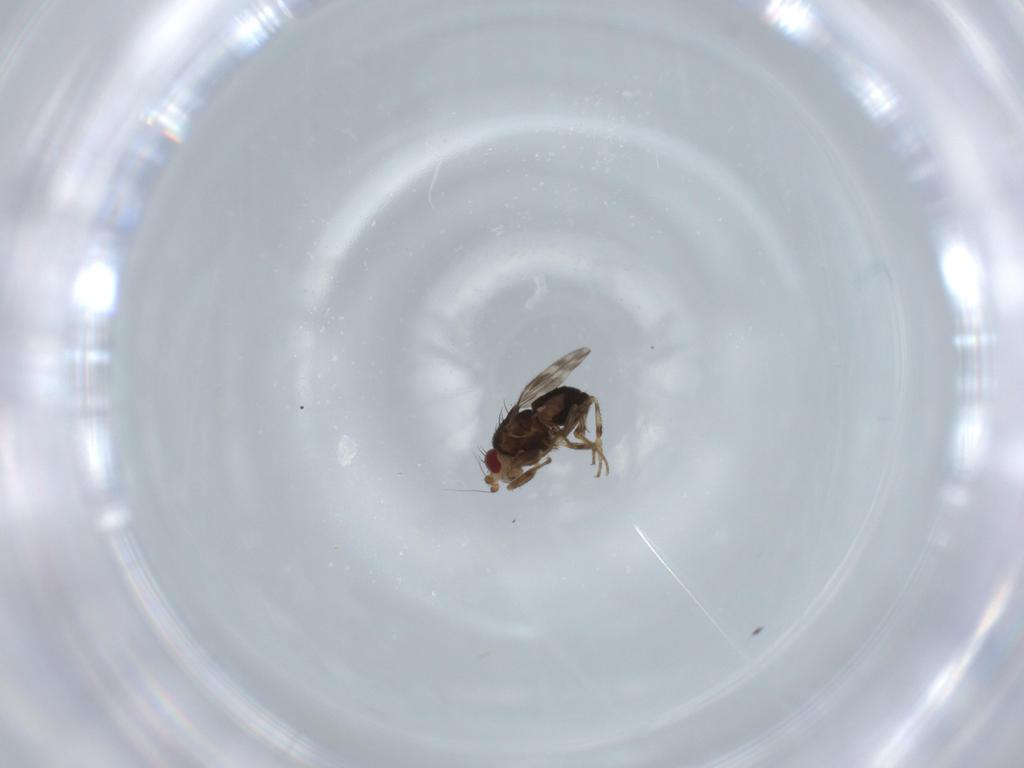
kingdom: Animalia
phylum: Arthropoda
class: Insecta
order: Diptera
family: Sphaeroceridae
